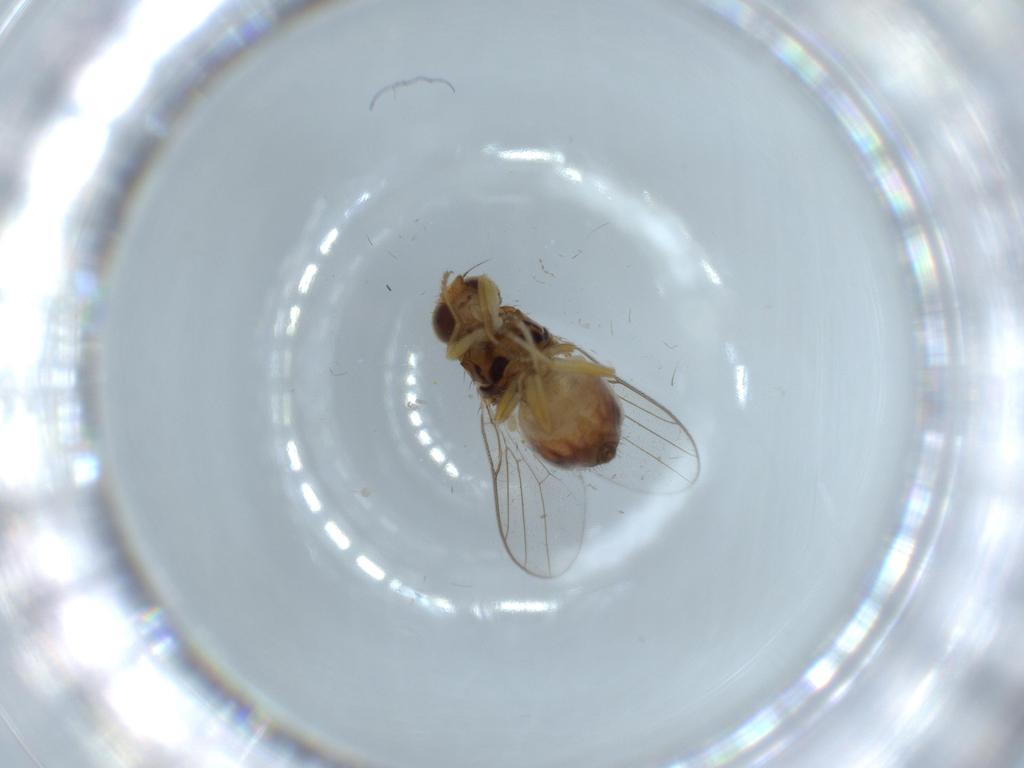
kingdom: Animalia
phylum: Arthropoda
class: Insecta
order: Diptera
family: Chloropidae
